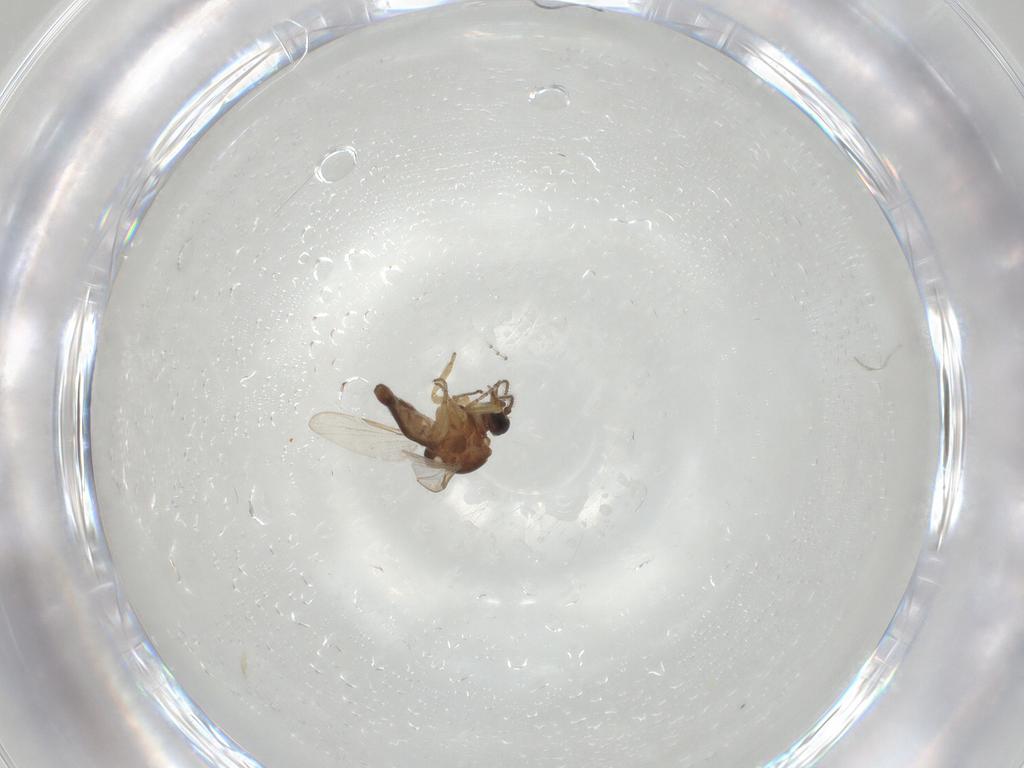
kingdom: Animalia
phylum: Arthropoda
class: Insecta
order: Diptera
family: Ceratopogonidae
